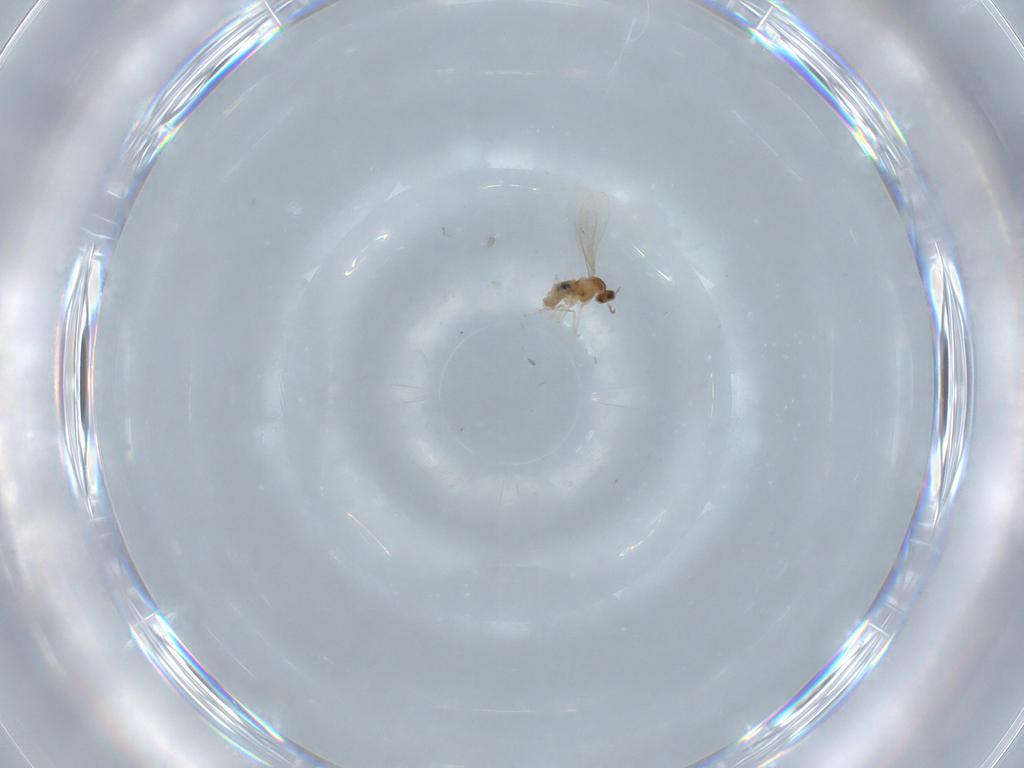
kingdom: Animalia
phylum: Arthropoda
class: Insecta
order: Diptera
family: Cecidomyiidae
